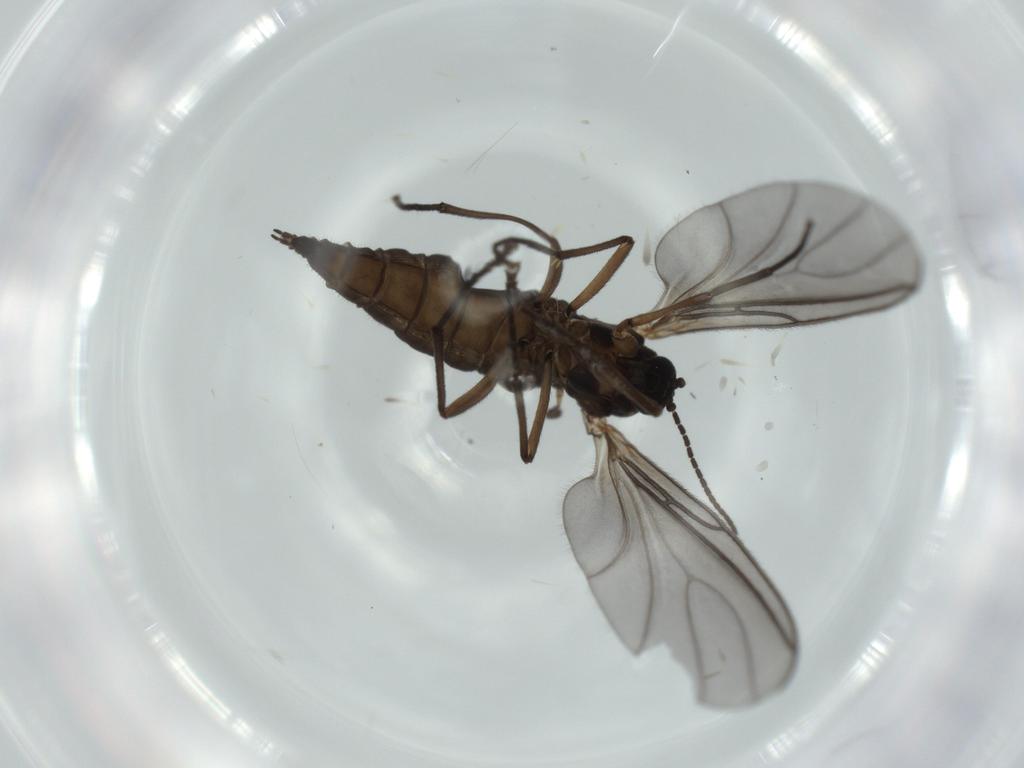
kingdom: Animalia
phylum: Arthropoda
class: Insecta
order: Diptera
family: Sciaridae
